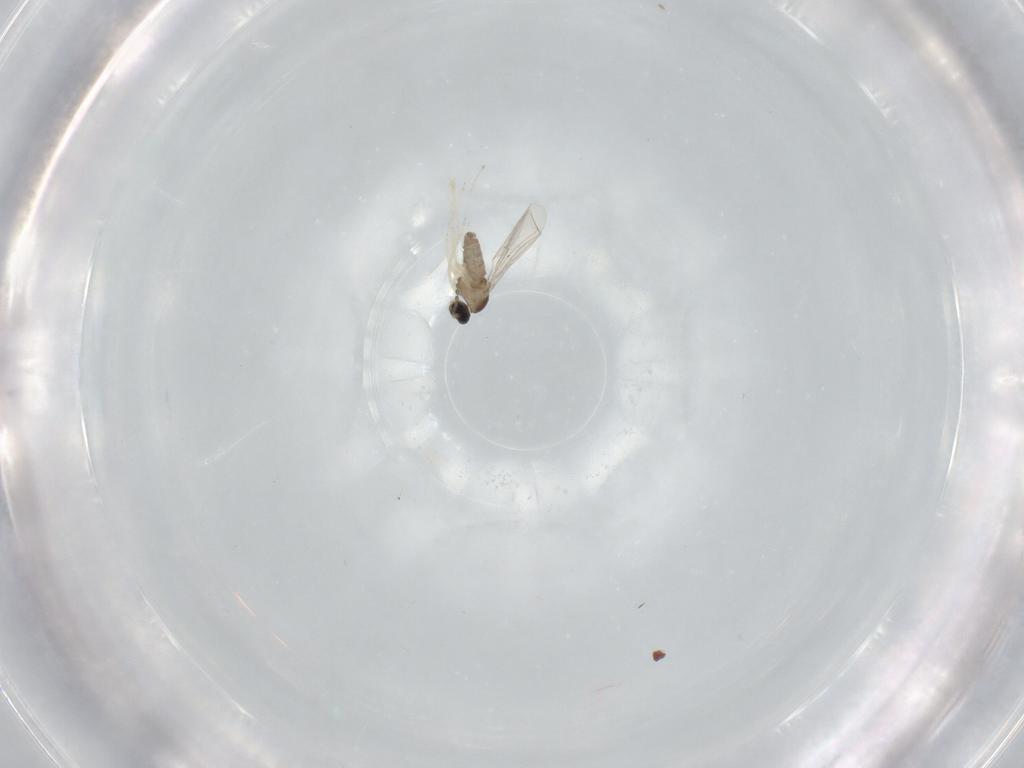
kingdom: Animalia
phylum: Arthropoda
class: Insecta
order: Diptera
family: Cecidomyiidae
